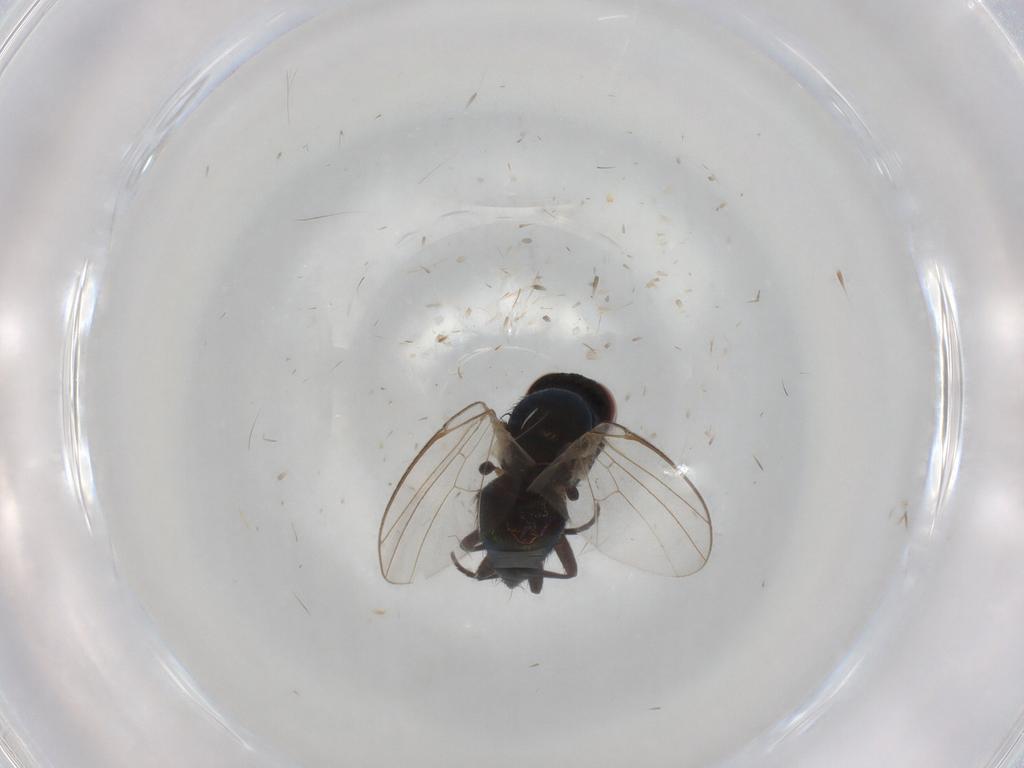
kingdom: Animalia
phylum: Arthropoda
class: Insecta
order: Diptera
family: Agromyzidae
